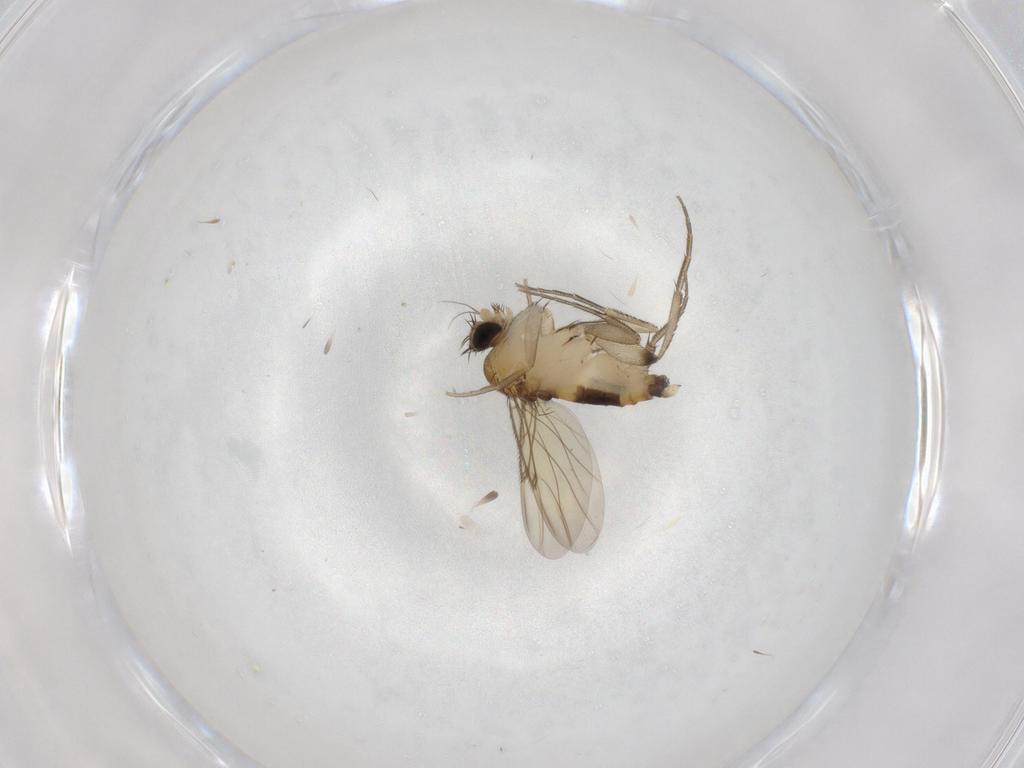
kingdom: Animalia
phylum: Arthropoda
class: Insecta
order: Diptera
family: Phoridae
